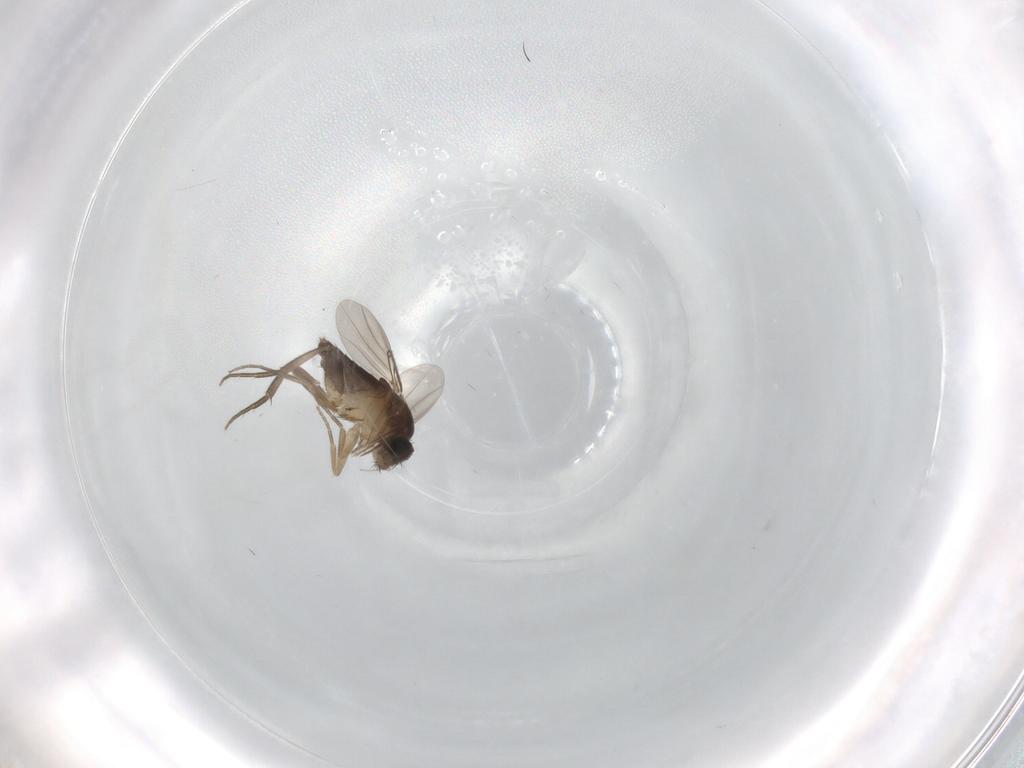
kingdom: Animalia
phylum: Arthropoda
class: Insecta
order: Diptera
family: Phoridae
